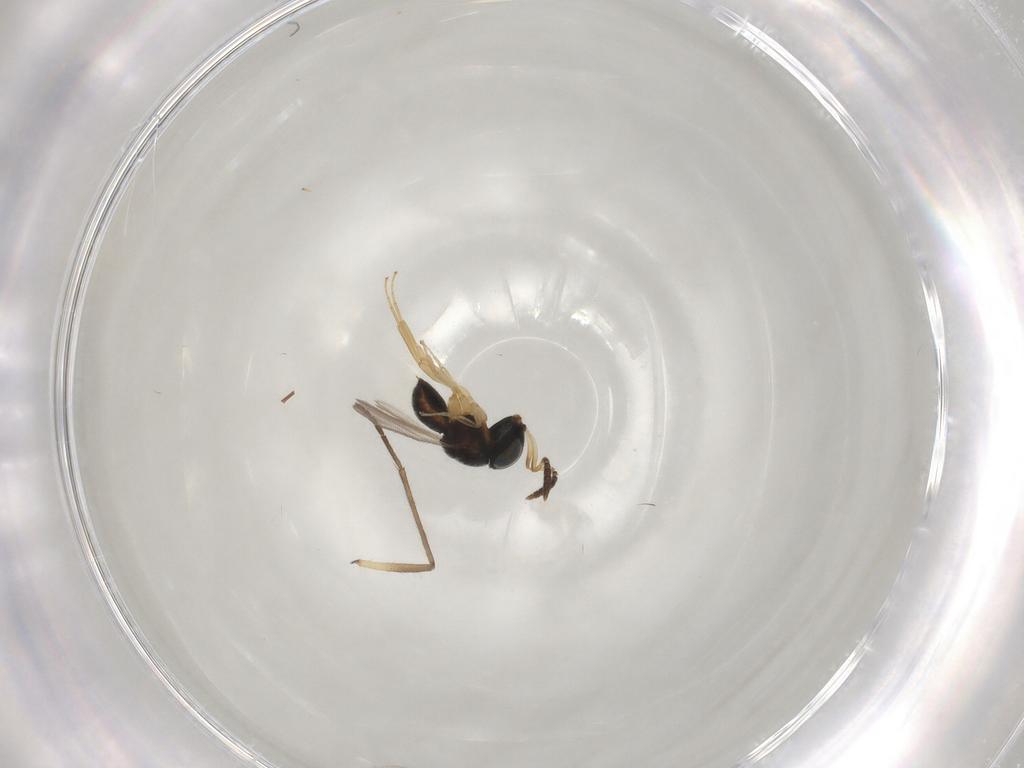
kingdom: Animalia
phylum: Arthropoda
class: Insecta
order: Hymenoptera
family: Scelionidae
